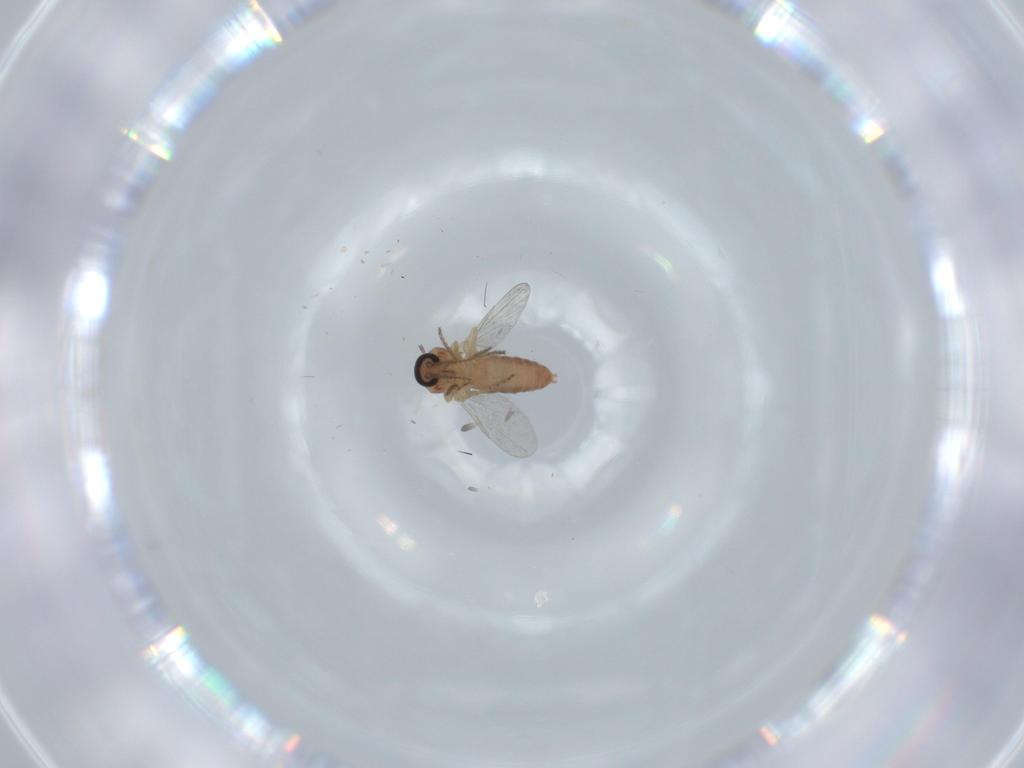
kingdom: Animalia
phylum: Arthropoda
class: Insecta
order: Diptera
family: Ceratopogonidae
